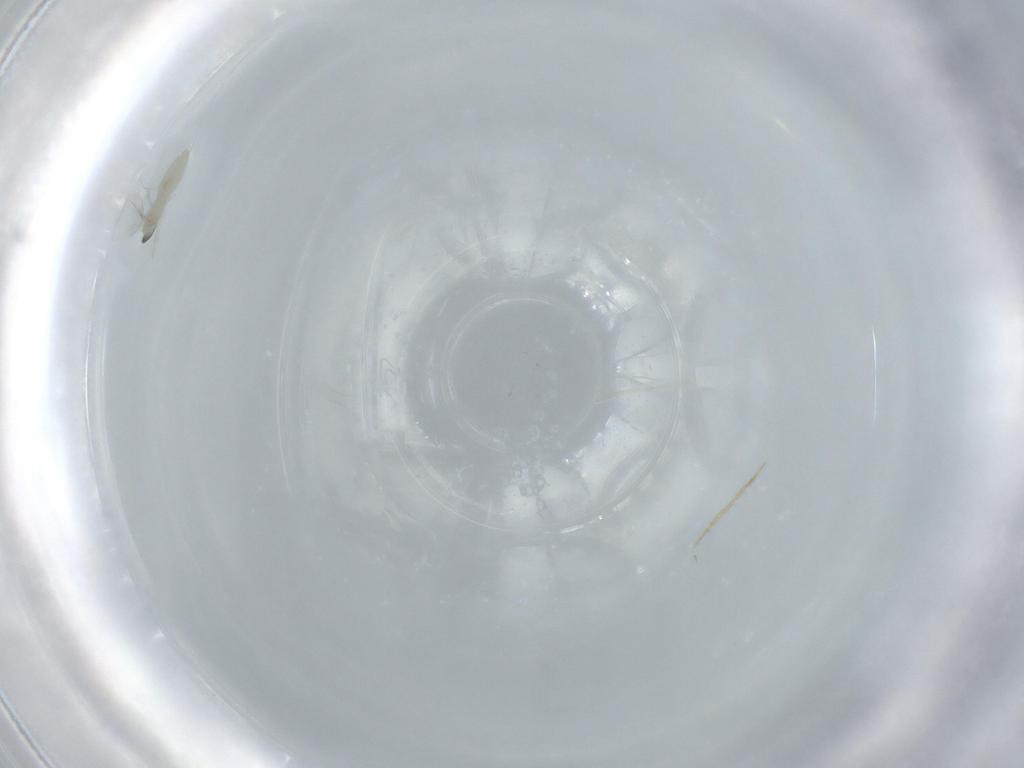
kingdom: Animalia
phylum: Arthropoda
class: Insecta
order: Diptera
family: Cecidomyiidae
